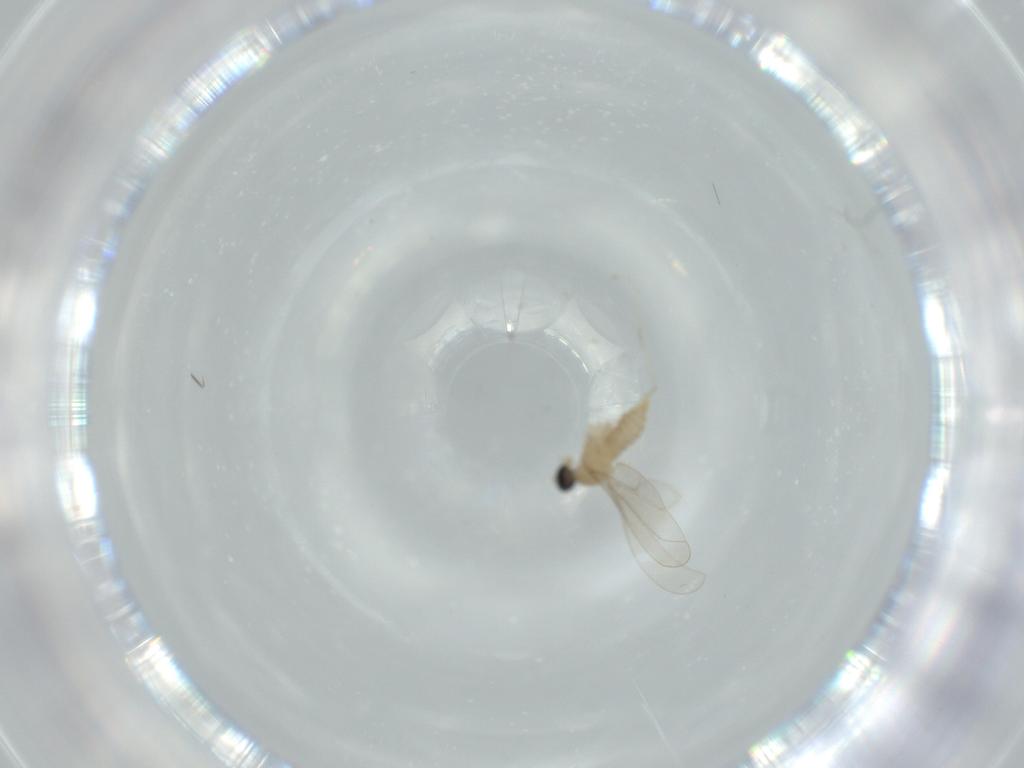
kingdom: Animalia
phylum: Arthropoda
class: Insecta
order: Diptera
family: Cecidomyiidae
